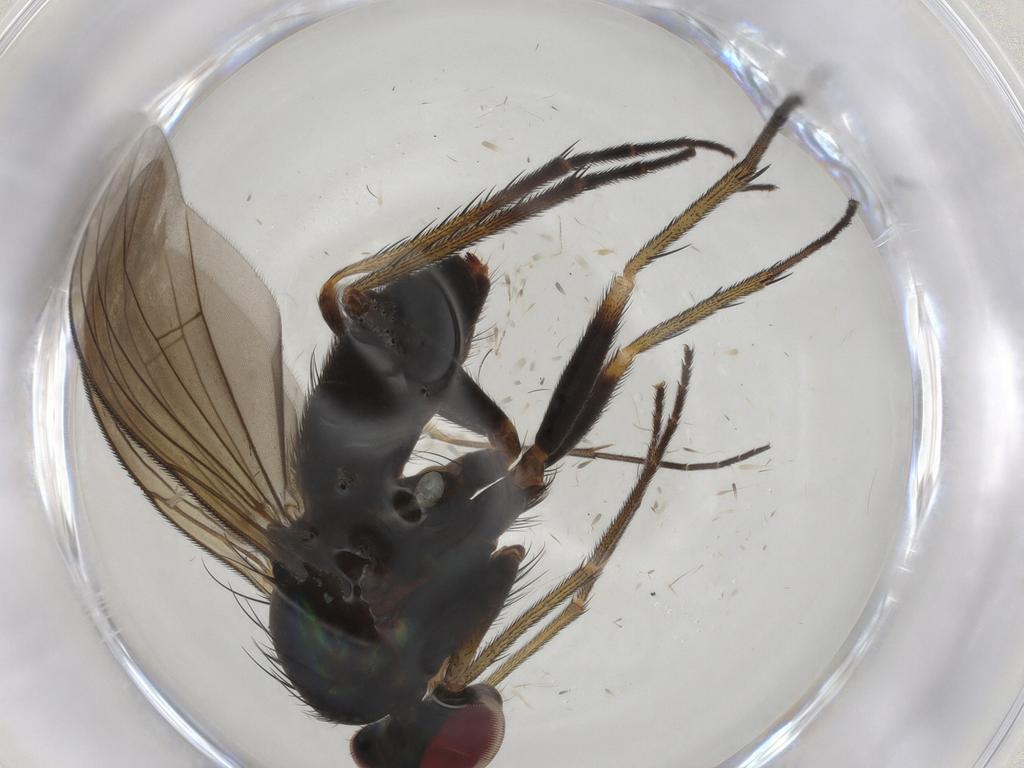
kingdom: Animalia
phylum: Arthropoda
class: Insecta
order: Diptera
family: Dolichopodidae
